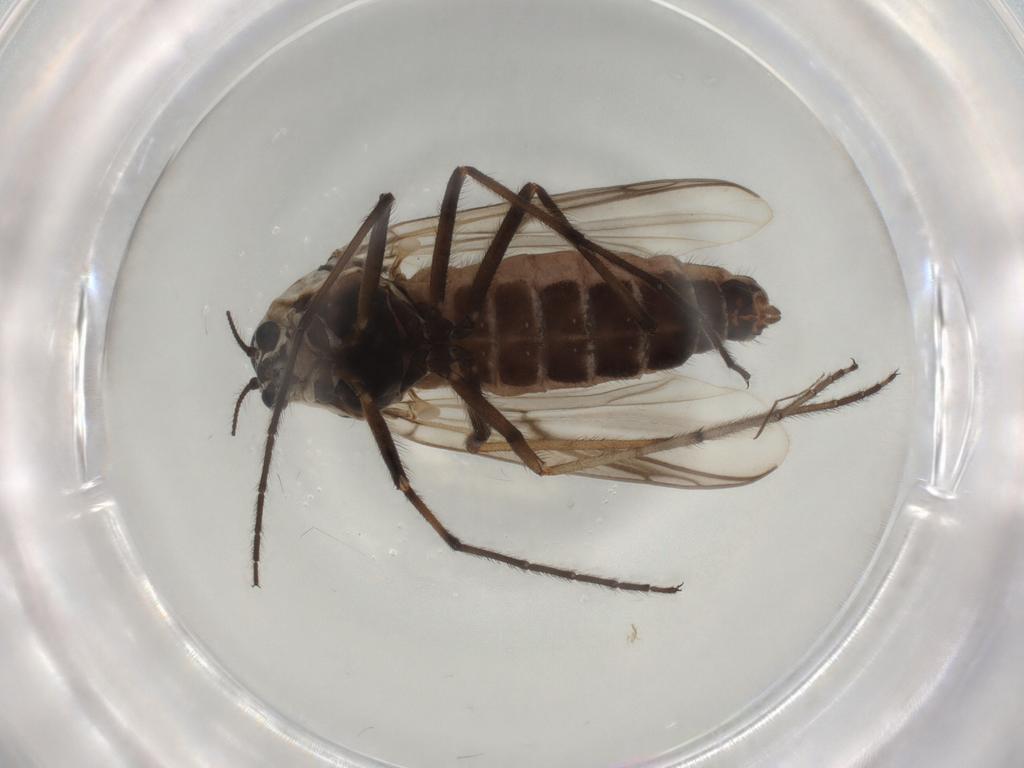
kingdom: Animalia
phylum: Arthropoda
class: Insecta
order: Diptera
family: Chironomidae
